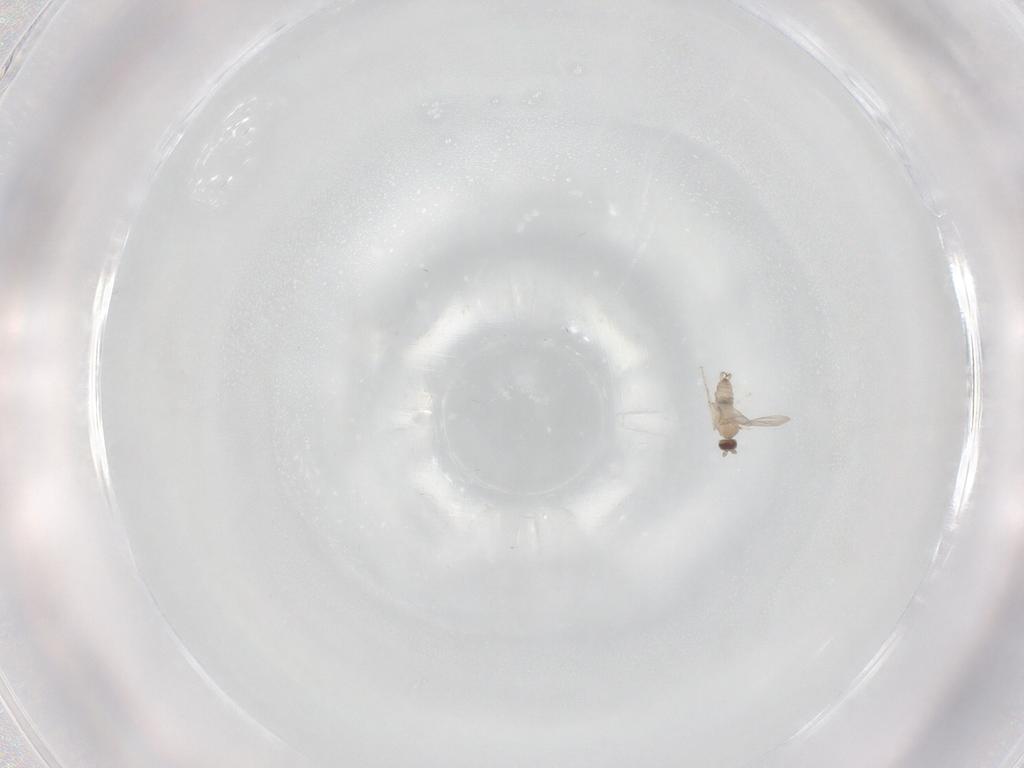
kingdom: Animalia
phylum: Arthropoda
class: Insecta
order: Diptera
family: Cecidomyiidae
